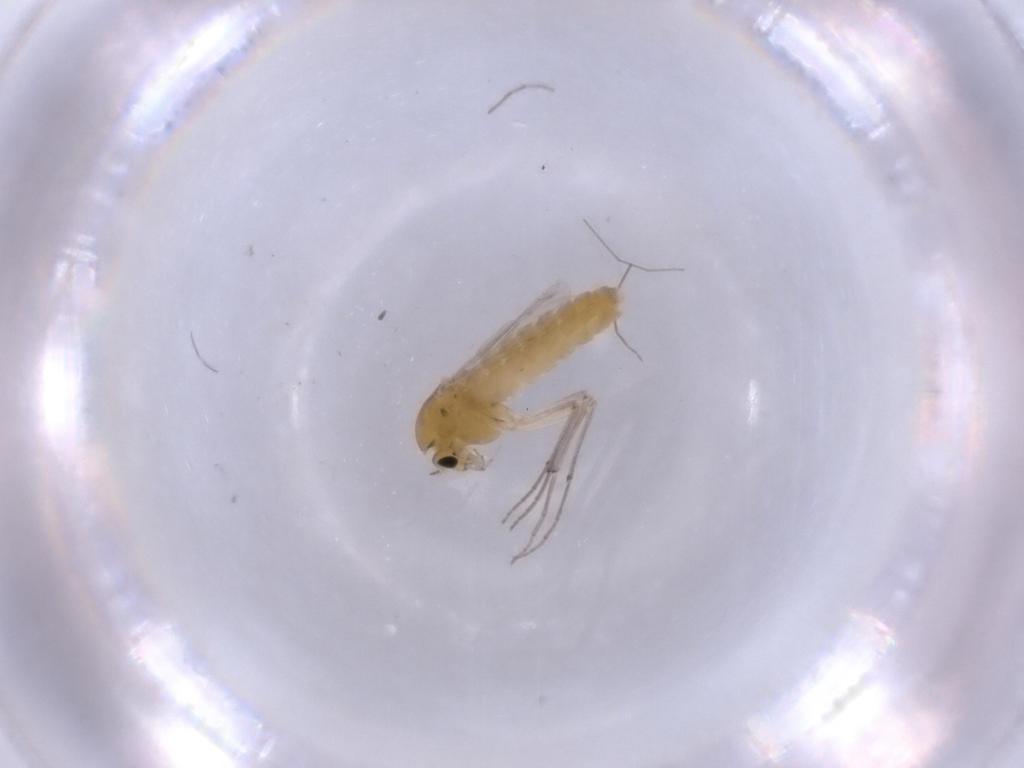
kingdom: Animalia
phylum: Arthropoda
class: Insecta
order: Diptera
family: Chironomidae
